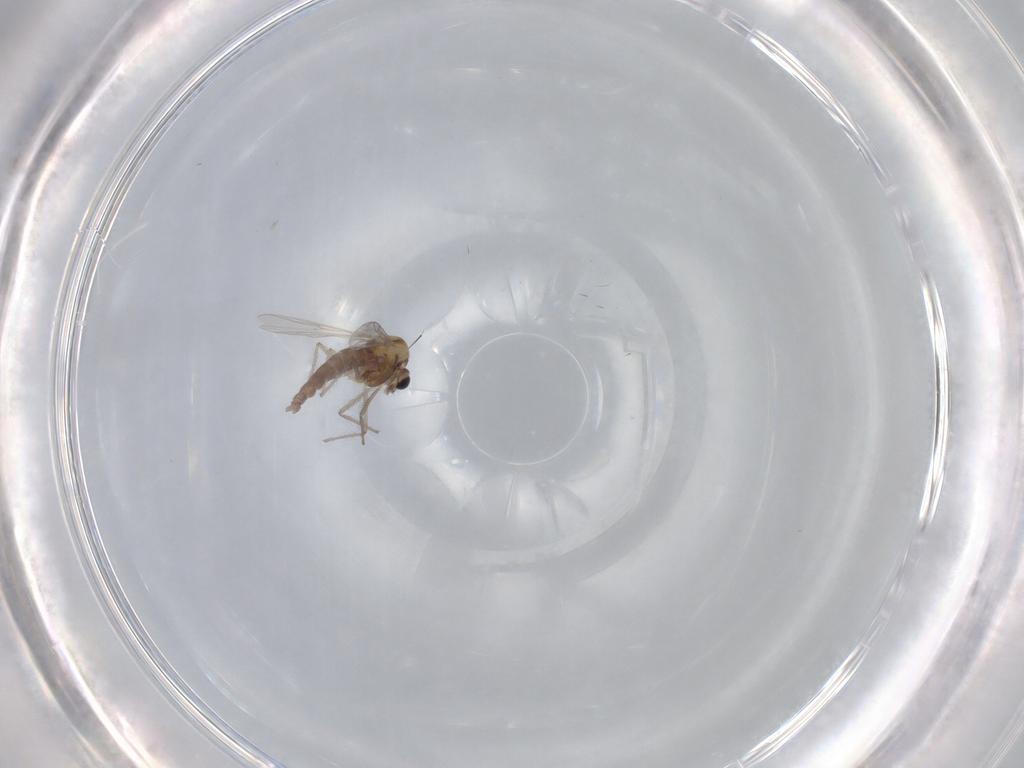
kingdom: Animalia
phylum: Arthropoda
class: Insecta
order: Diptera
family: Chironomidae
